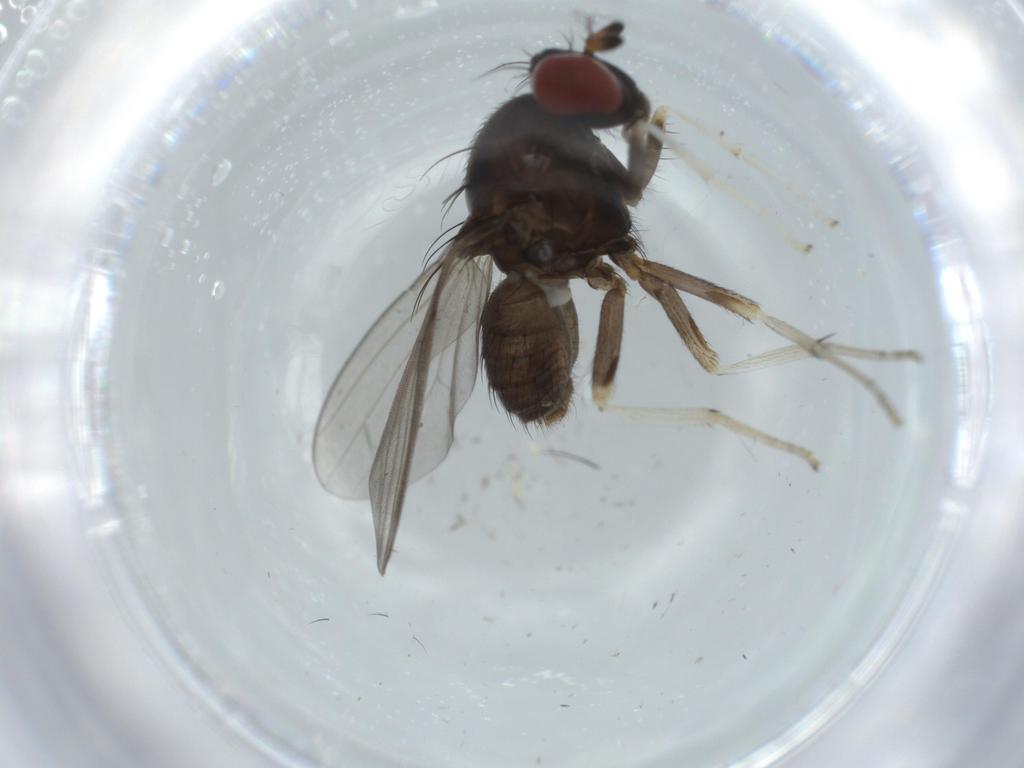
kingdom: Animalia
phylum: Arthropoda
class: Insecta
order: Diptera
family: Lauxaniidae
